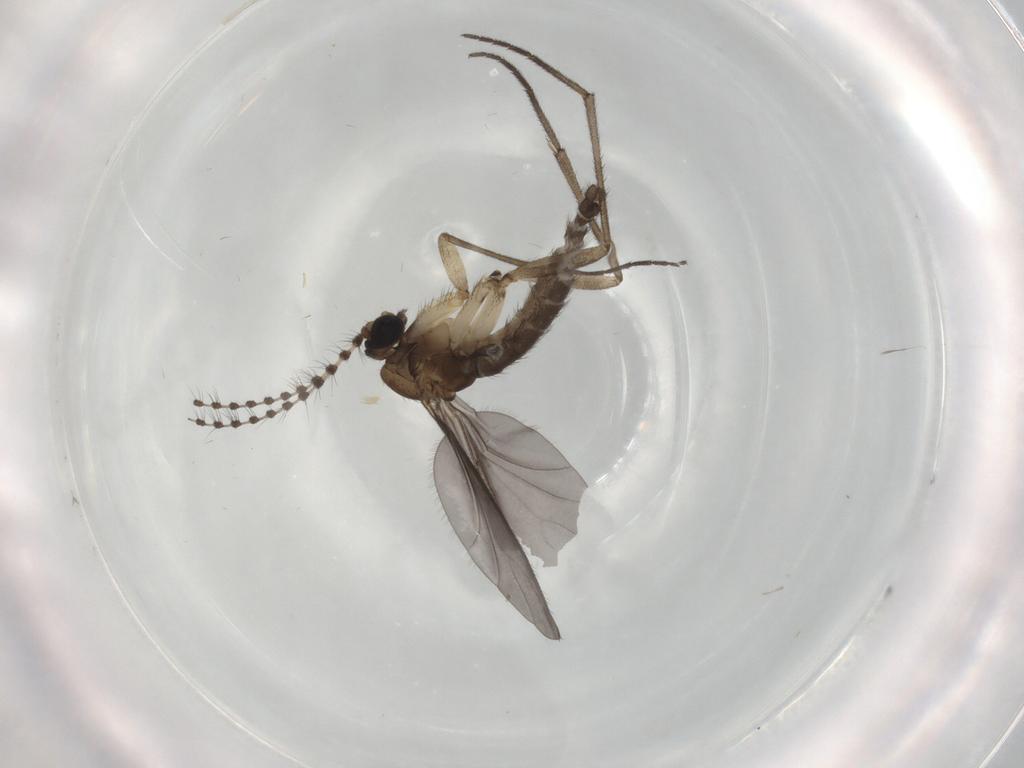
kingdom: Animalia
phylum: Arthropoda
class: Insecta
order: Diptera
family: Sciaridae
